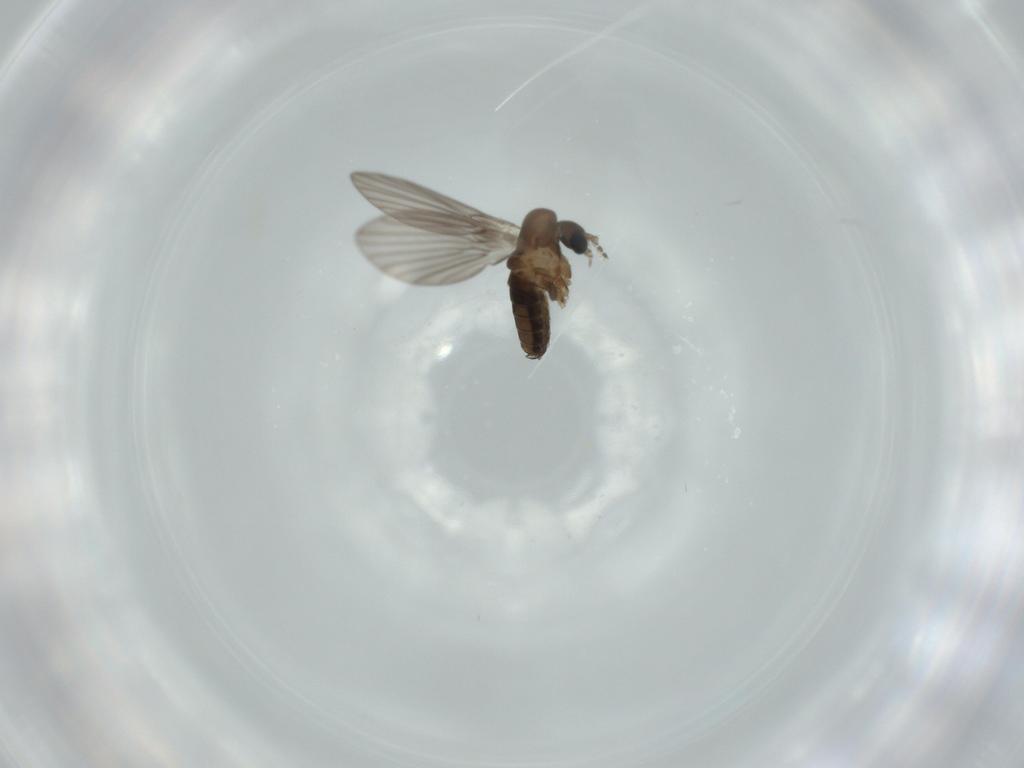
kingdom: Animalia
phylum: Arthropoda
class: Insecta
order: Diptera
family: Psychodidae
